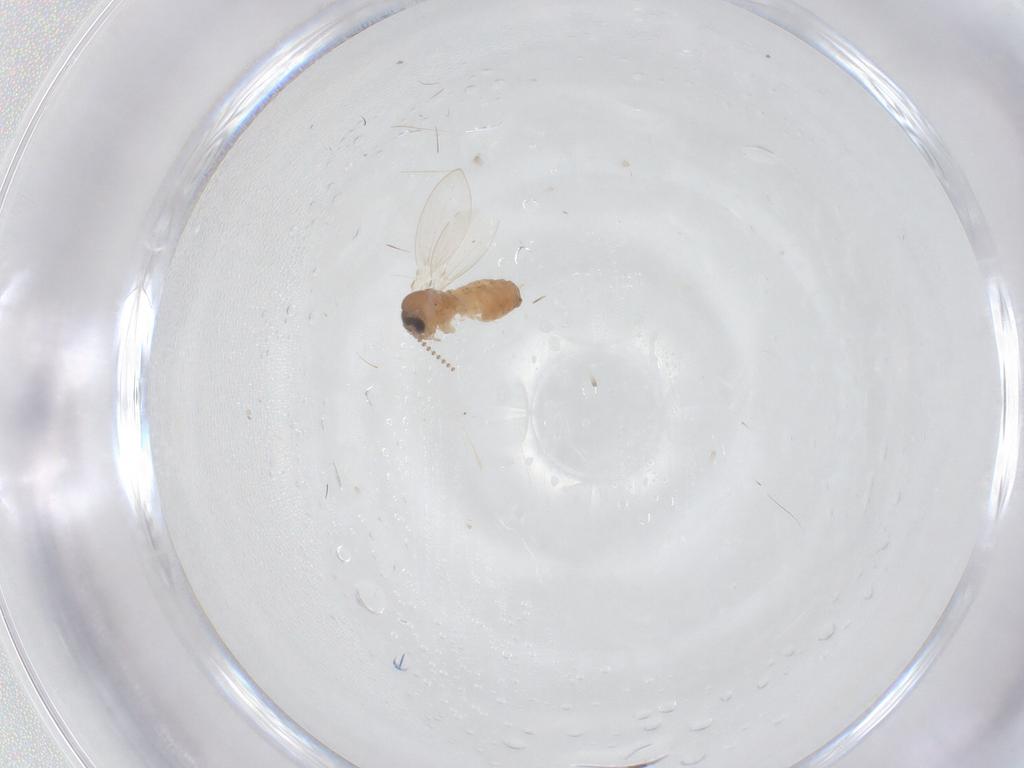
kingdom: Animalia
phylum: Arthropoda
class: Insecta
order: Diptera
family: Psychodidae
